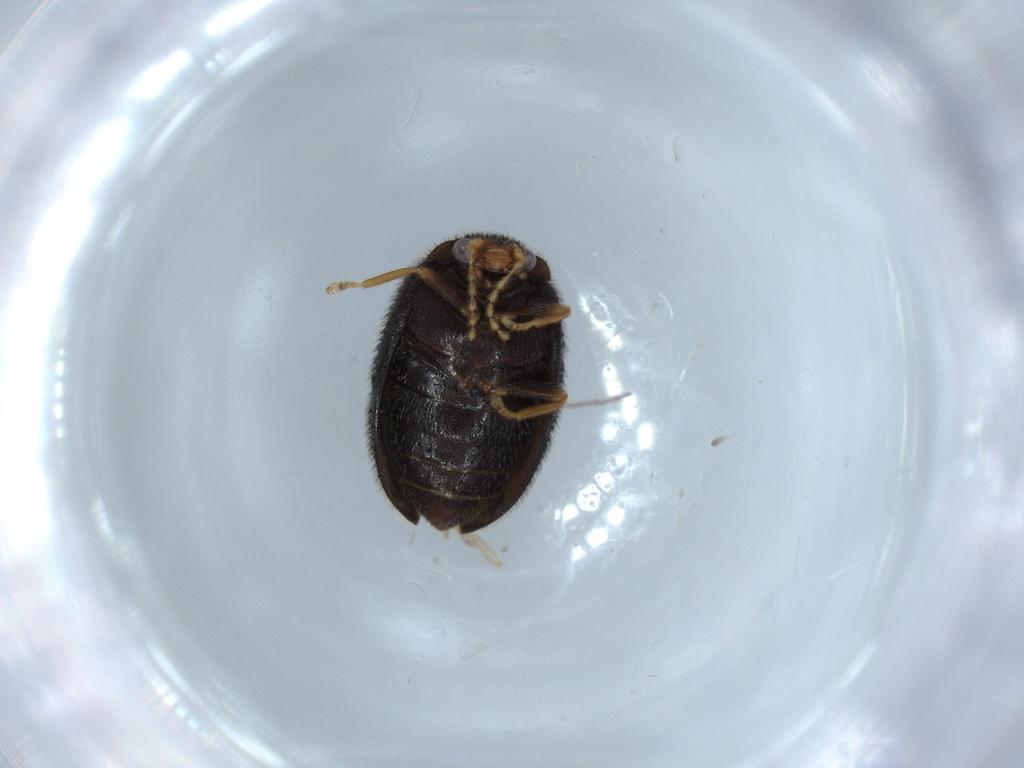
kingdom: Animalia
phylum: Arthropoda
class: Insecta
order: Coleoptera
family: Scirtidae
